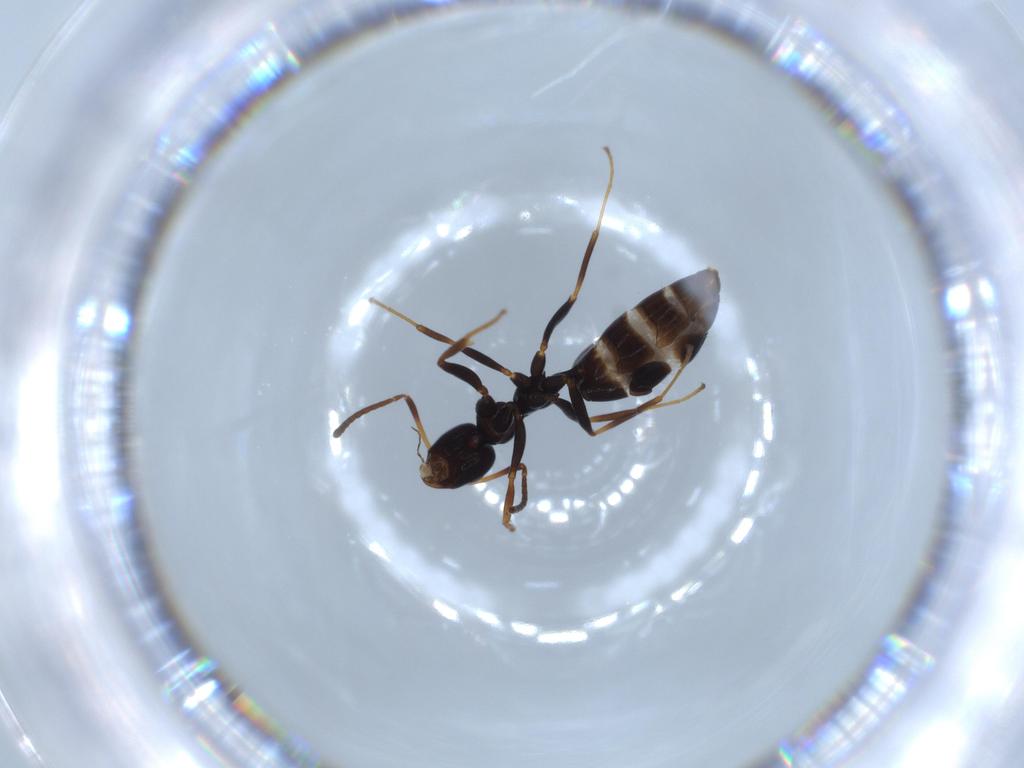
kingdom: Animalia
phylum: Arthropoda
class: Insecta
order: Hymenoptera
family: Formicidae
